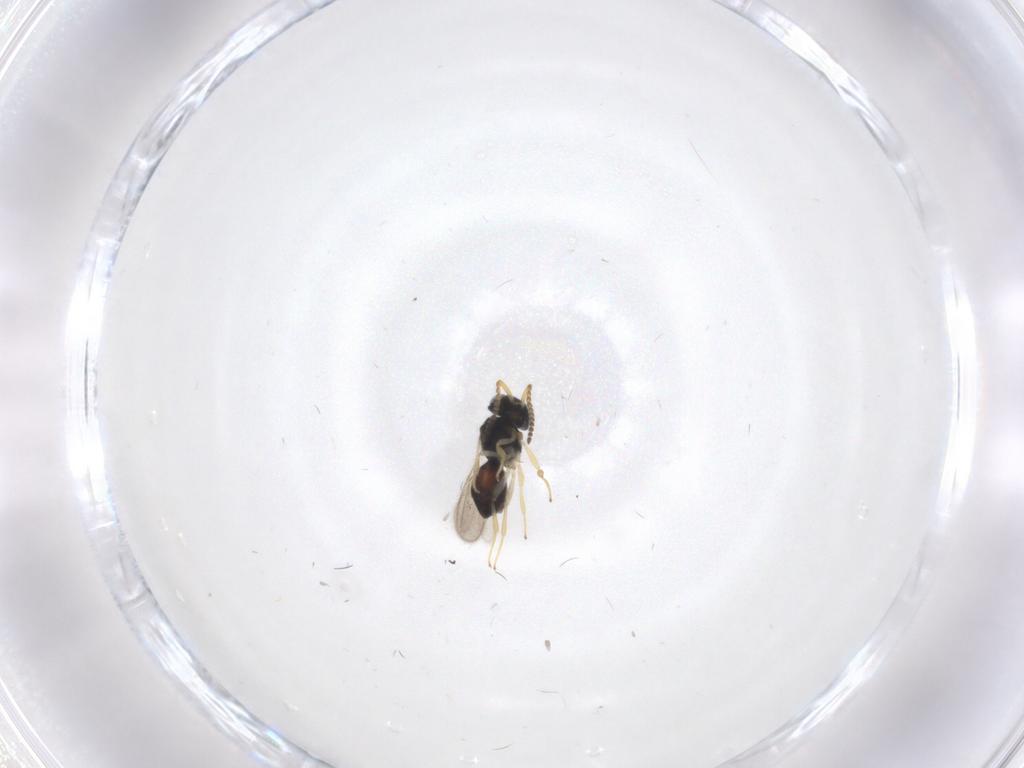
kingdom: Animalia
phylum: Arthropoda
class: Insecta
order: Hymenoptera
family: Scelionidae
